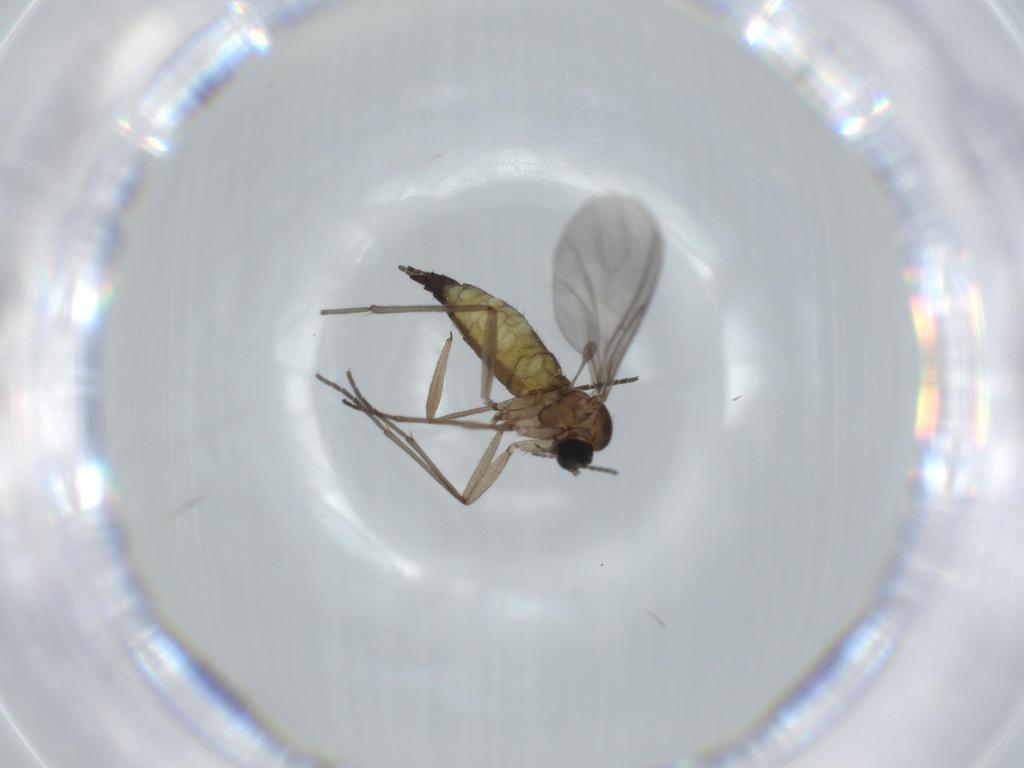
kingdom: Animalia
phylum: Arthropoda
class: Insecta
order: Diptera
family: Sciaridae
